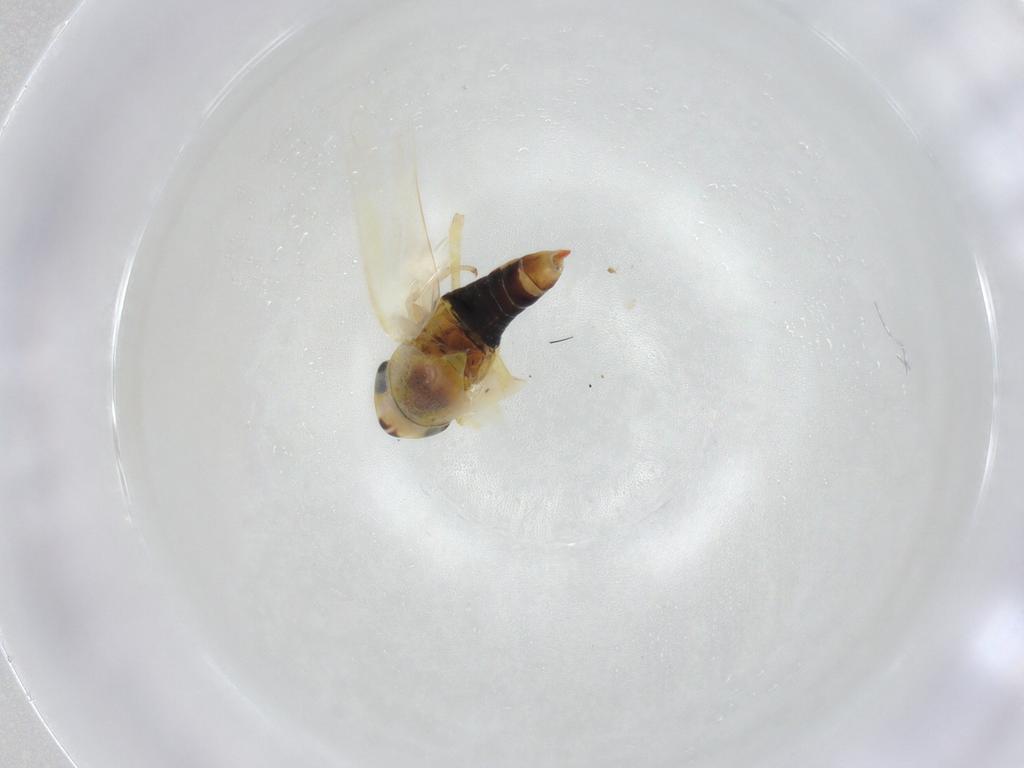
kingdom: Animalia
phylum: Arthropoda
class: Insecta
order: Hemiptera
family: Cicadellidae
